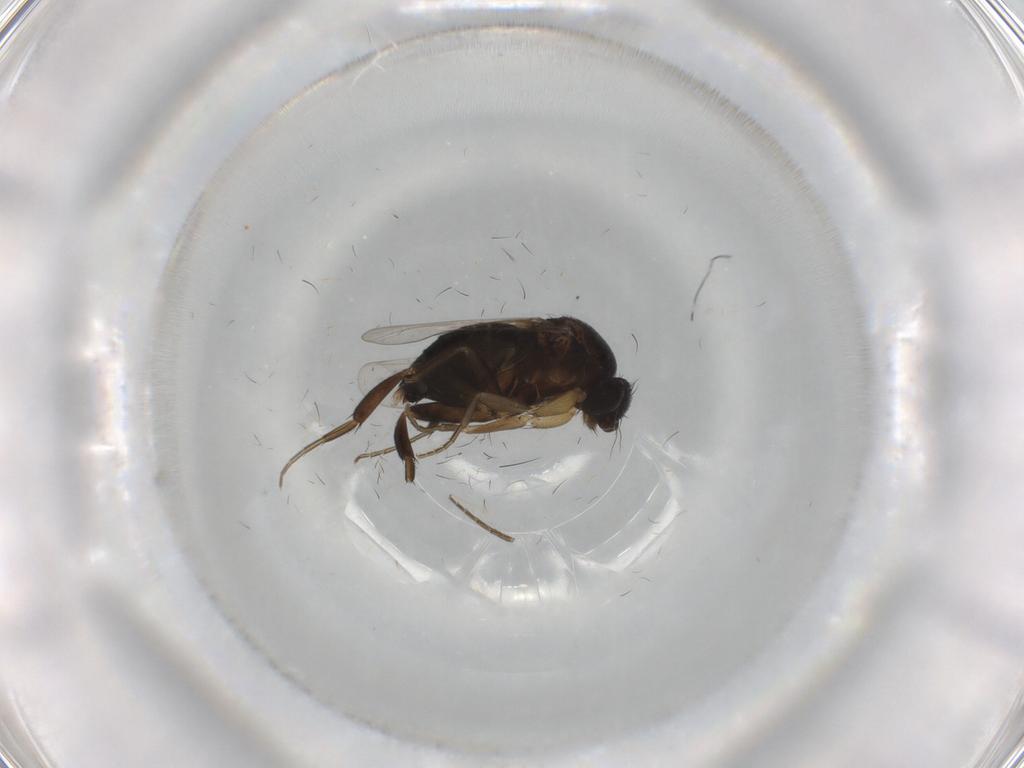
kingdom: Animalia
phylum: Arthropoda
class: Insecta
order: Diptera
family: Phoridae
